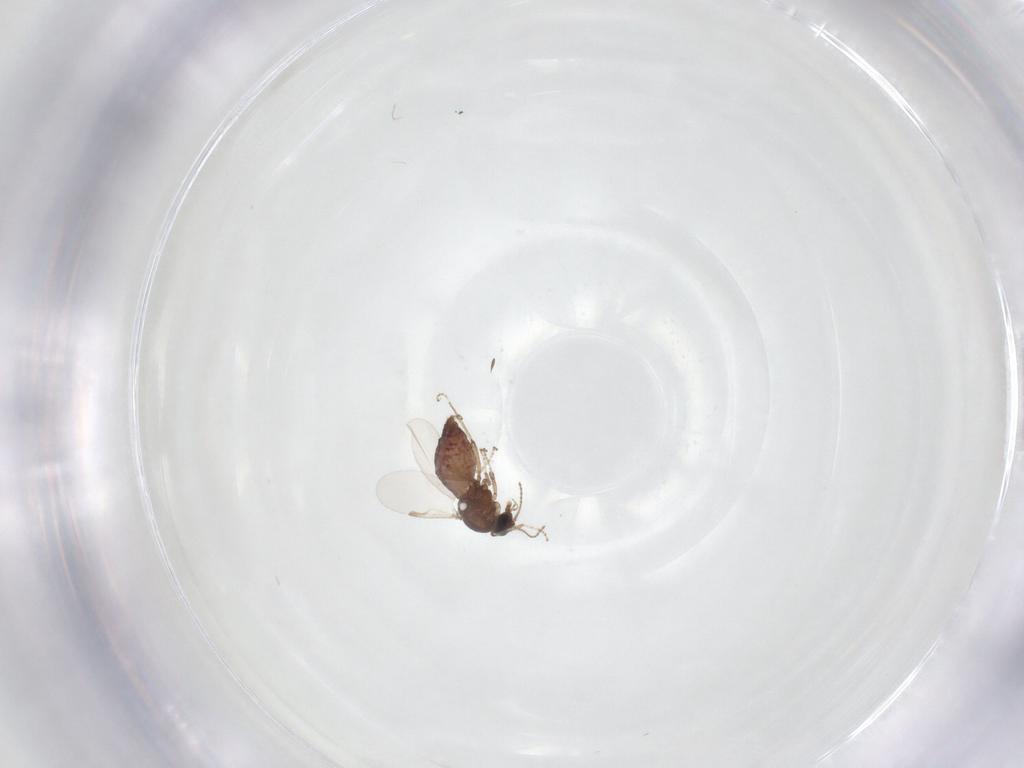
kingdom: Animalia
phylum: Arthropoda
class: Insecta
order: Diptera
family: Ceratopogonidae
